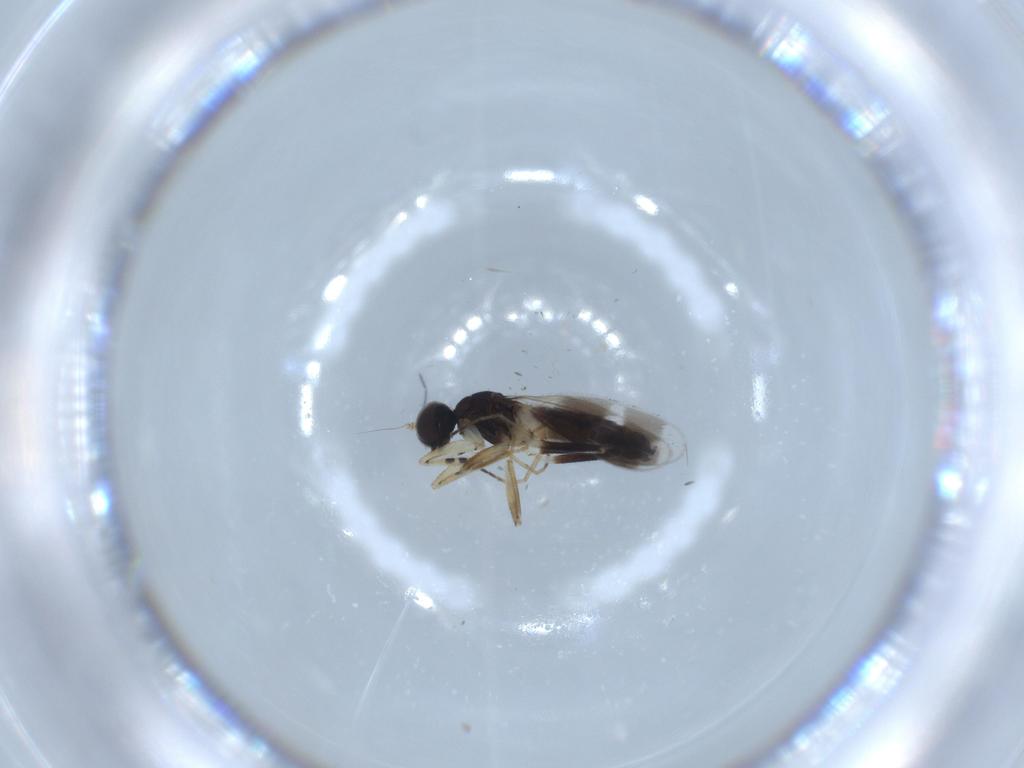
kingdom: Animalia
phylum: Arthropoda
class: Insecta
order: Diptera
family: Hybotidae
